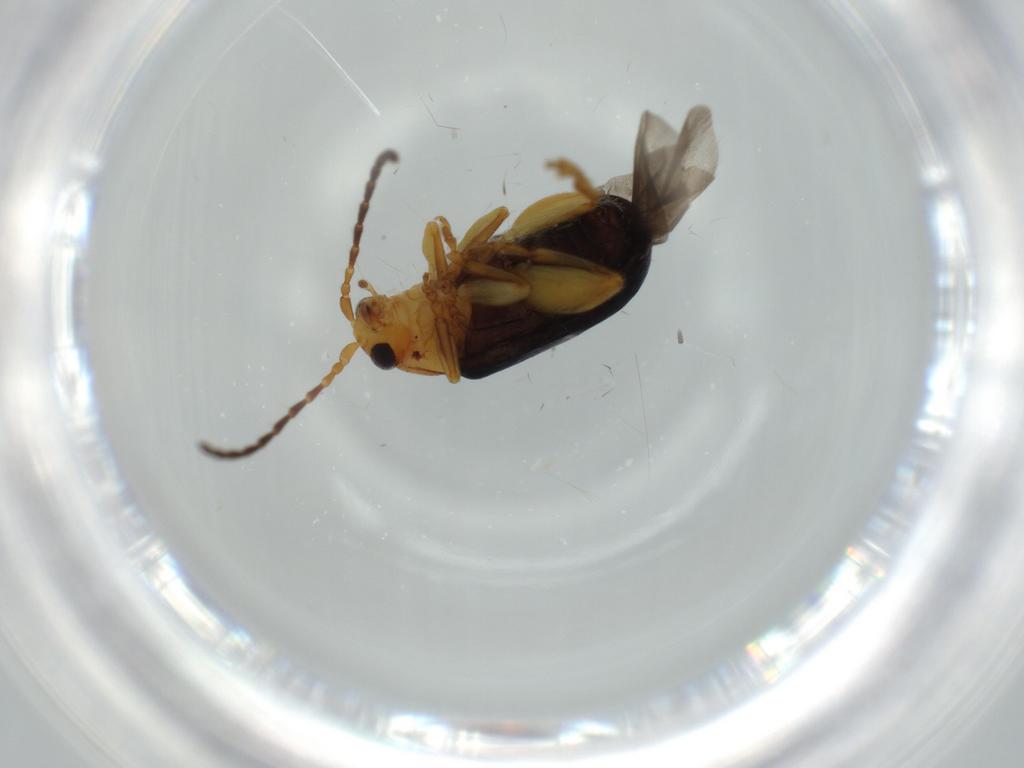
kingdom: Animalia
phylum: Arthropoda
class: Insecta
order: Coleoptera
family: Chrysomelidae
